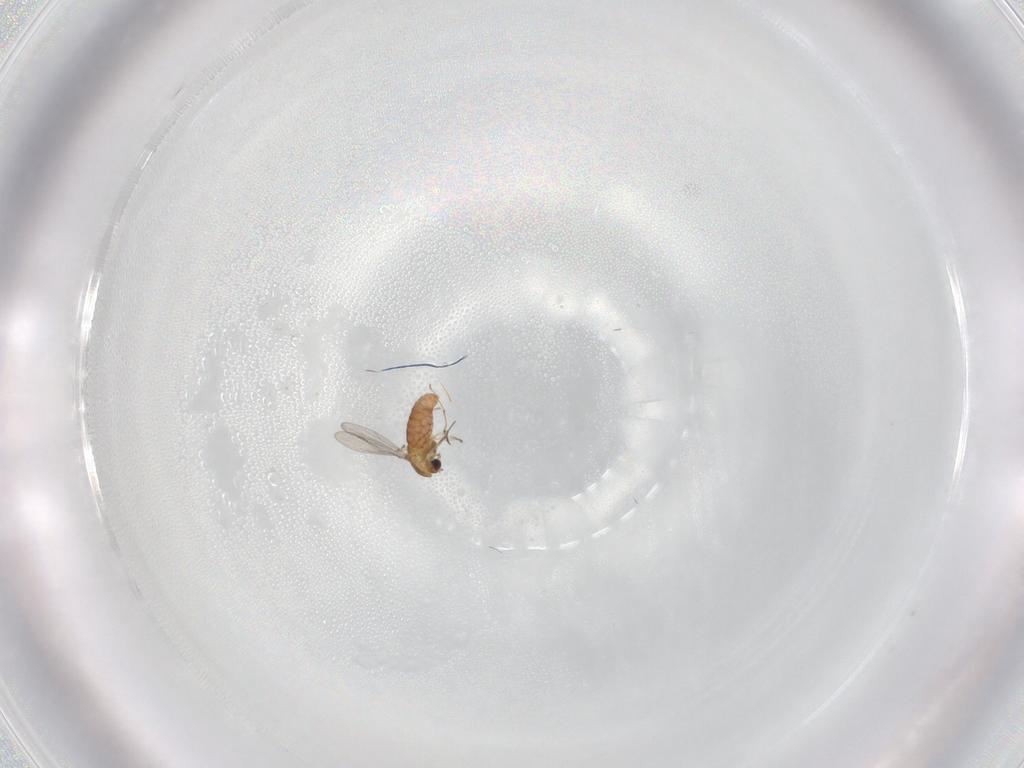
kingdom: Animalia
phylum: Arthropoda
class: Insecta
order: Diptera
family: Chironomidae
